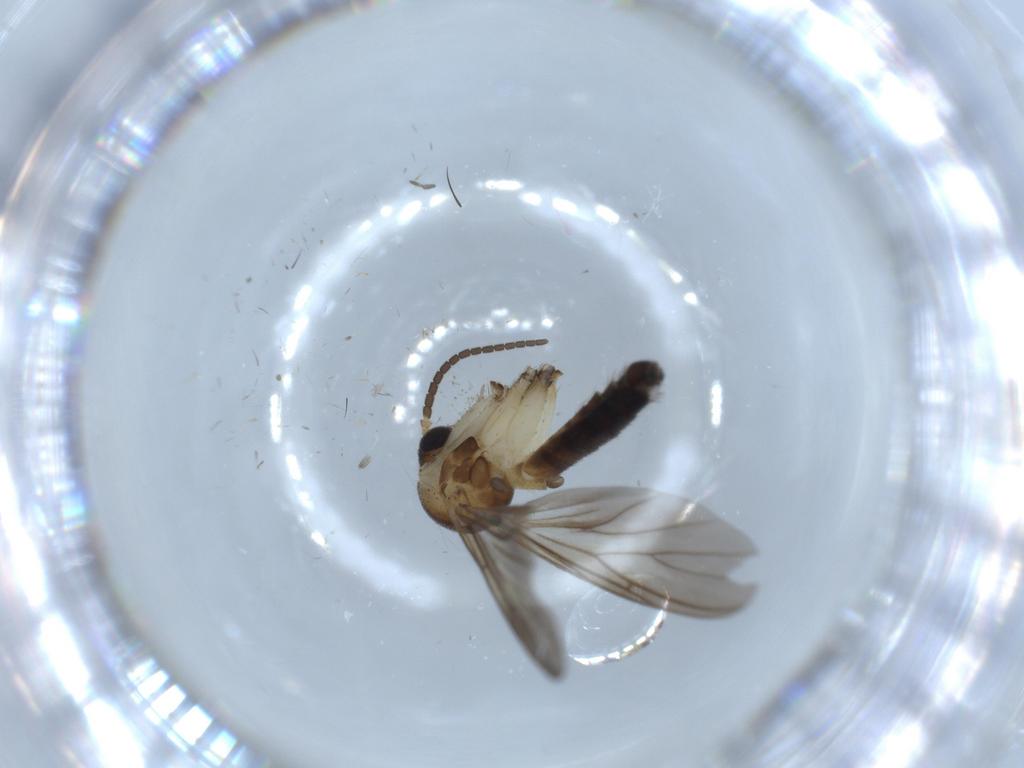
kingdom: Animalia
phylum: Arthropoda
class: Insecta
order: Diptera
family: Mycetophilidae
